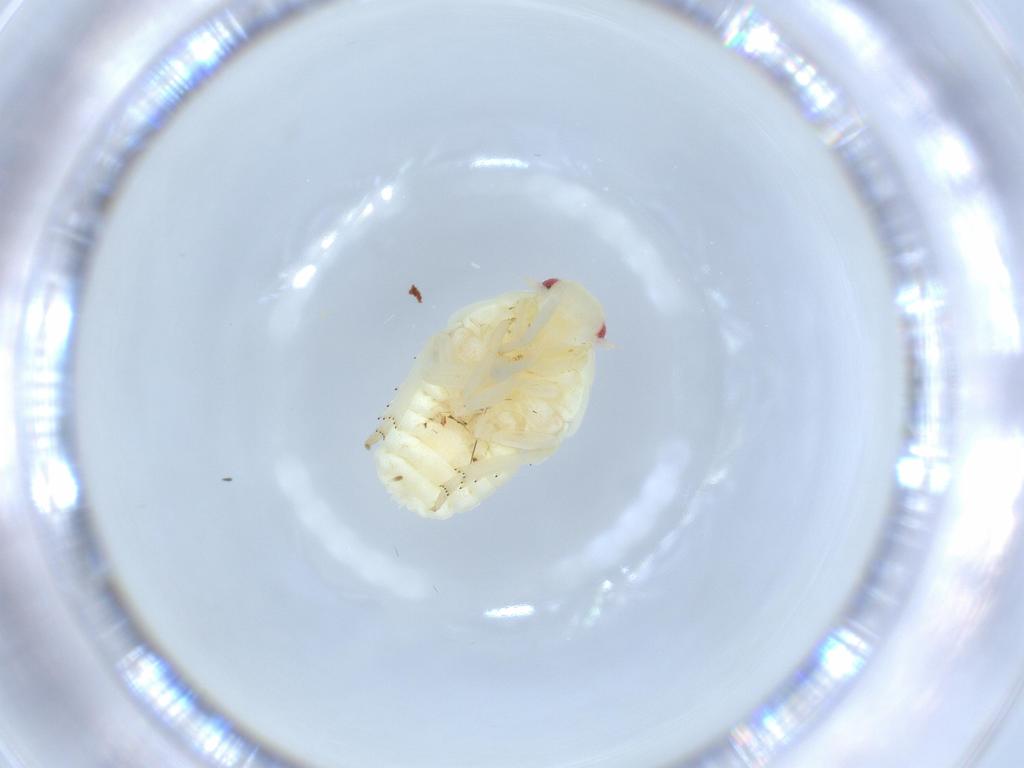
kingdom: Animalia
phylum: Arthropoda
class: Insecta
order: Hemiptera
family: Flatidae
